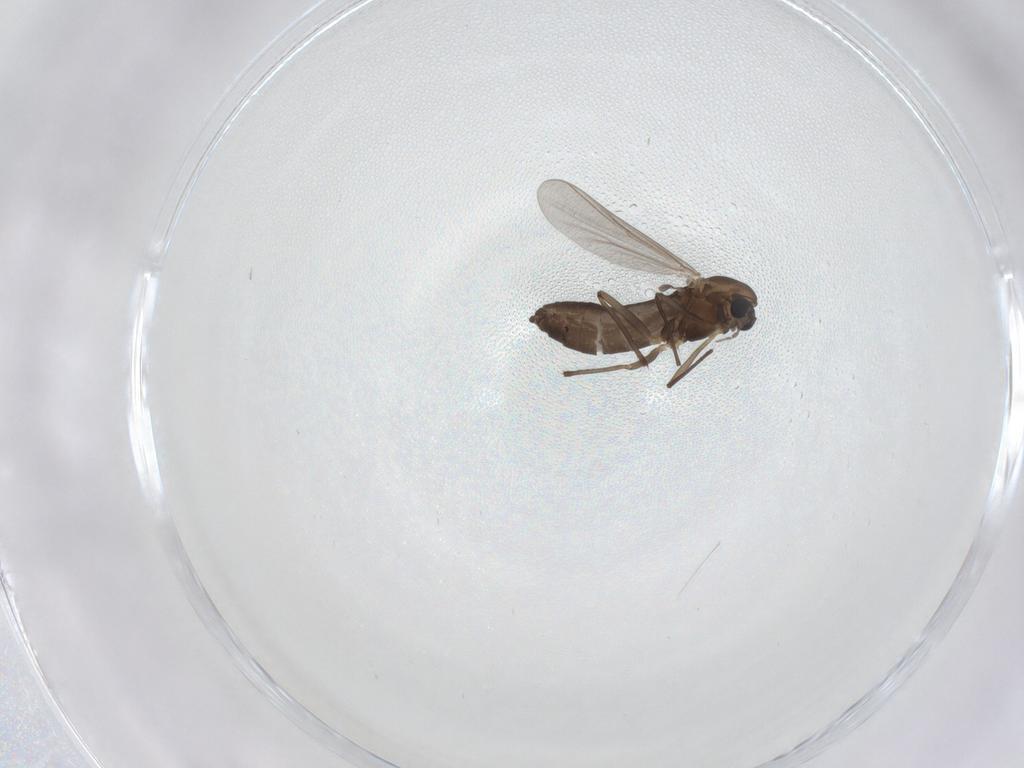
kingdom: Animalia
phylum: Arthropoda
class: Insecta
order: Diptera
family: Chironomidae
